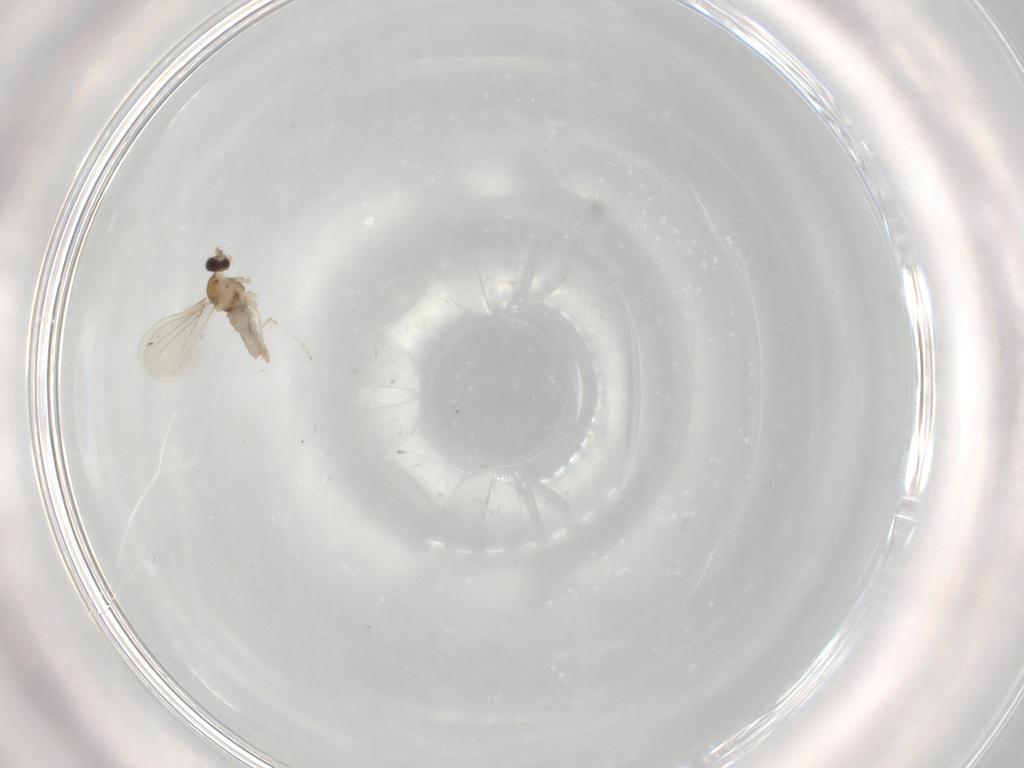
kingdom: Animalia
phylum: Arthropoda
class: Insecta
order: Diptera
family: Cecidomyiidae
